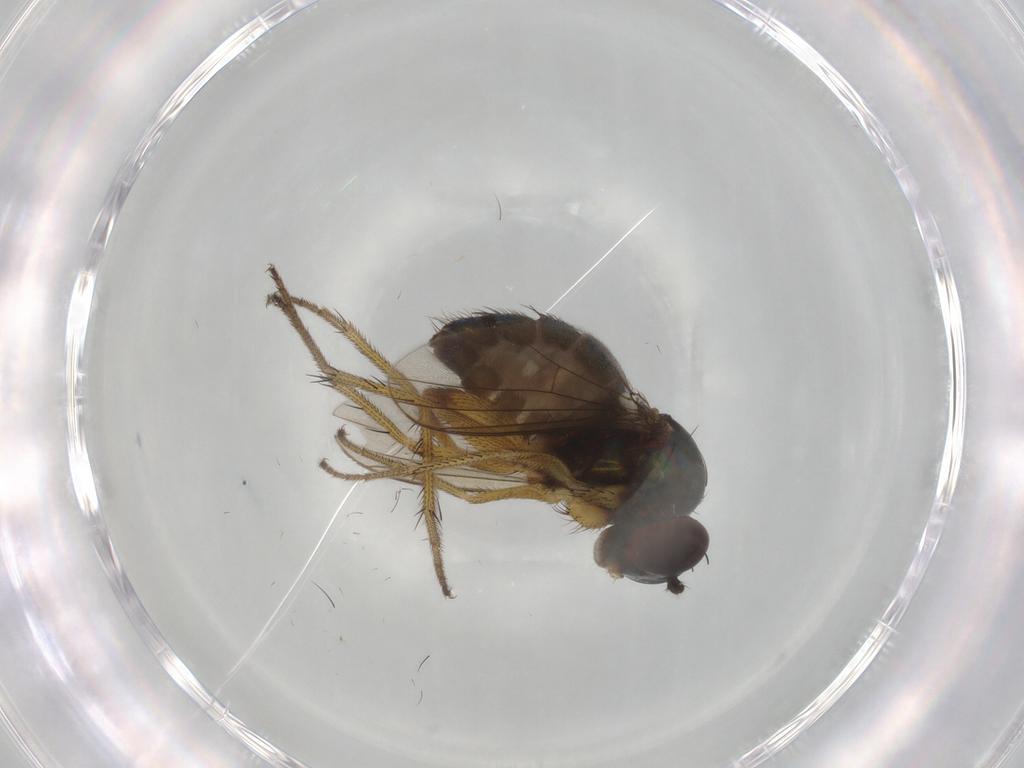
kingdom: Animalia
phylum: Arthropoda
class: Insecta
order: Diptera
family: Dolichopodidae
